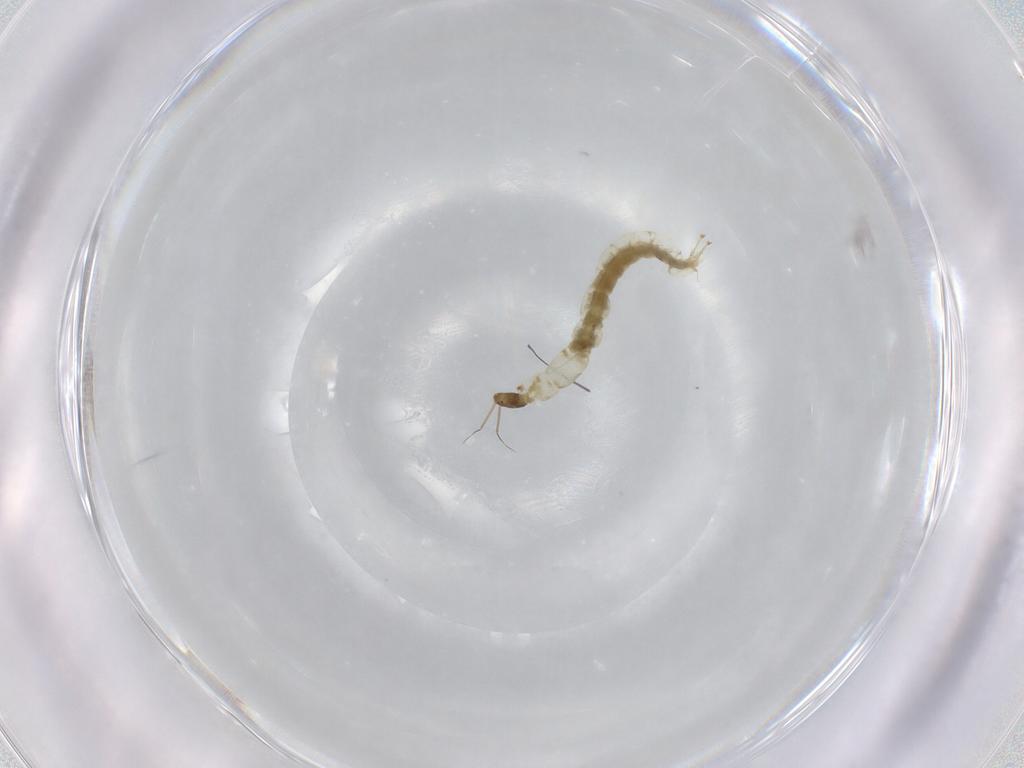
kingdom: Animalia
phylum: Arthropoda
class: Insecta
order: Diptera
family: Chironomidae
